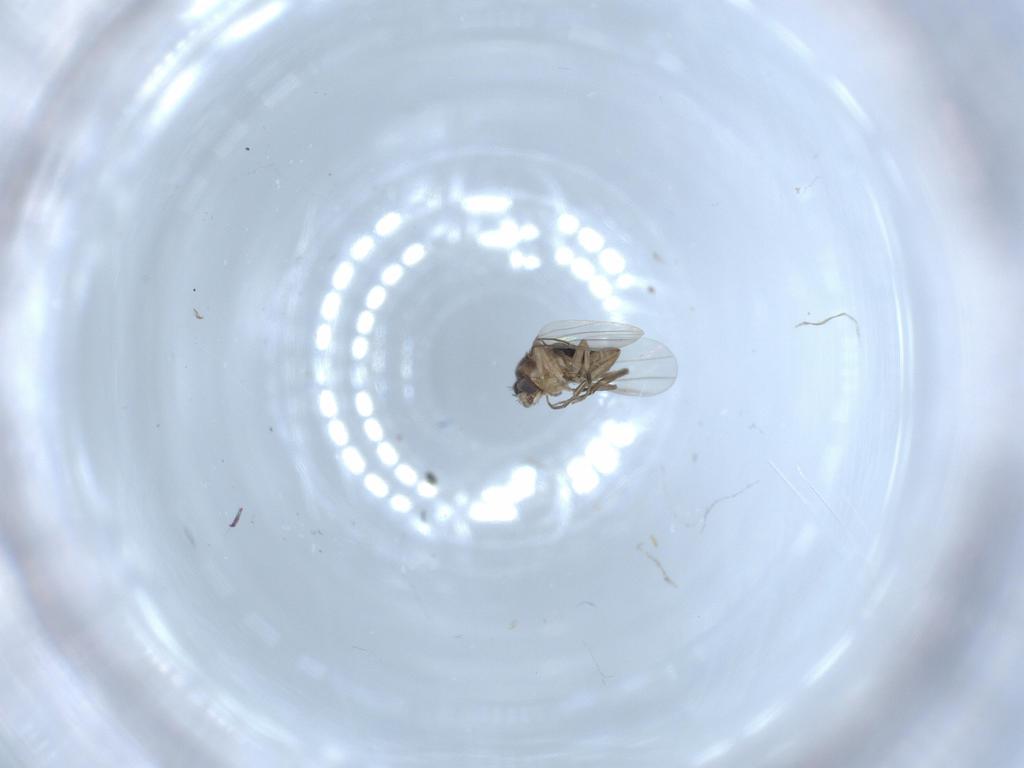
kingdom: Animalia
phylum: Arthropoda
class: Insecta
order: Diptera
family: Phoridae
